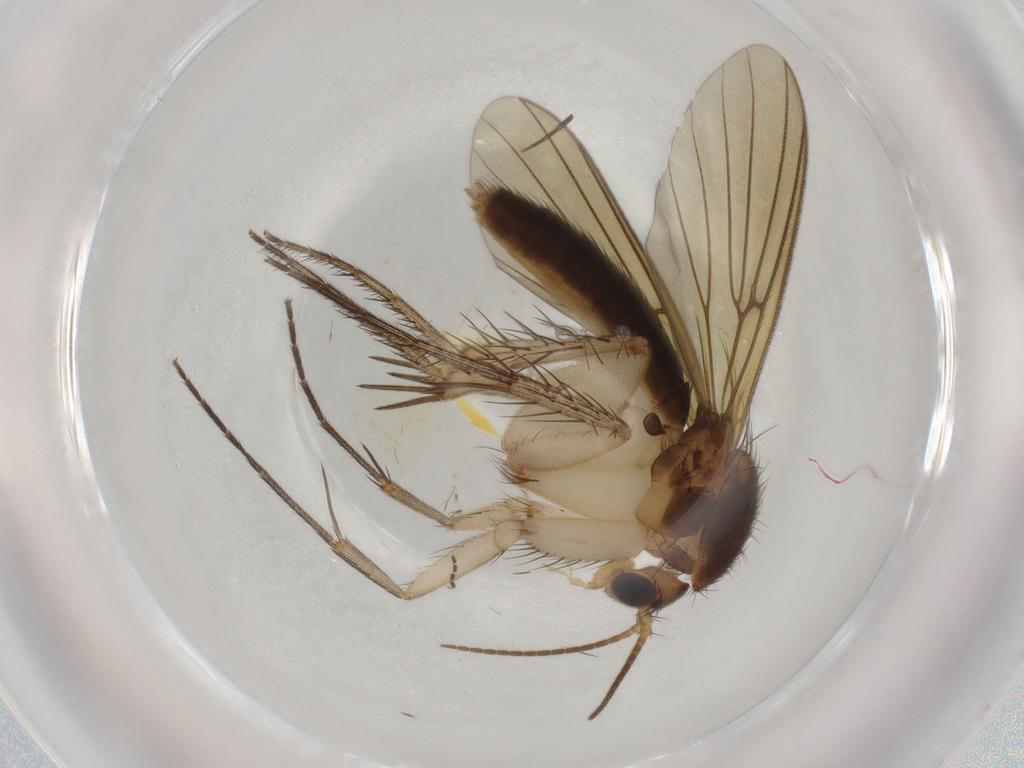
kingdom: Animalia
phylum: Arthropoda
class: Insecta
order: Diptera
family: Mycetophilidae
